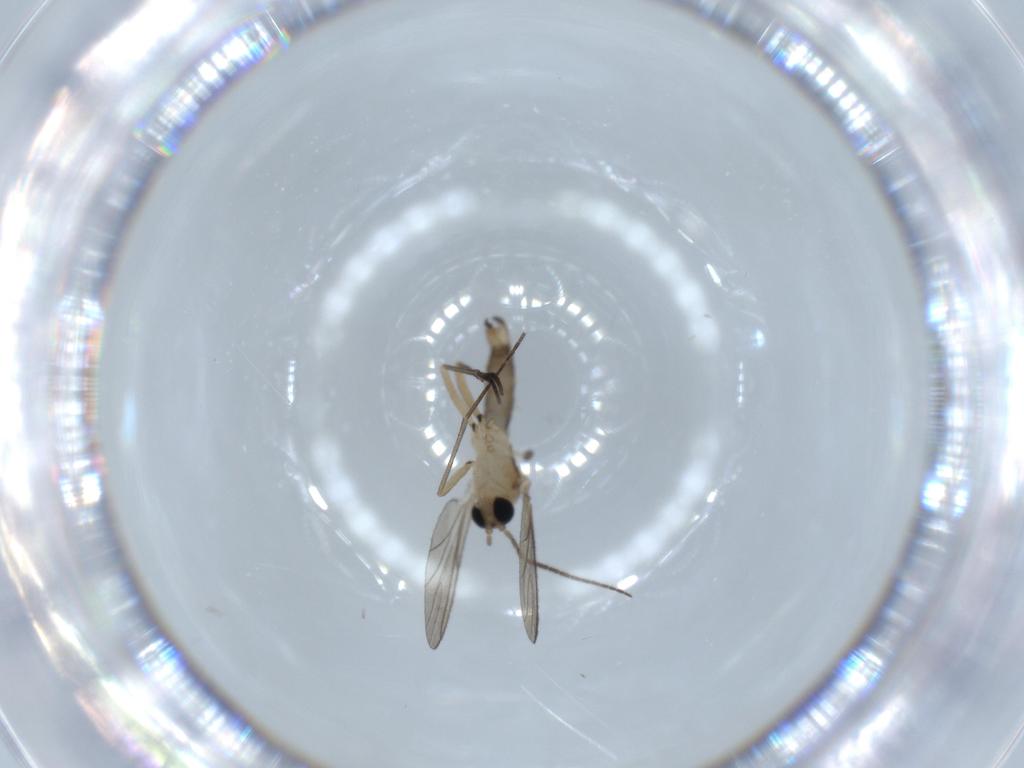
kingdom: Animalia
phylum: Arthropoda
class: Insecta
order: Diptera
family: Sciaridae
